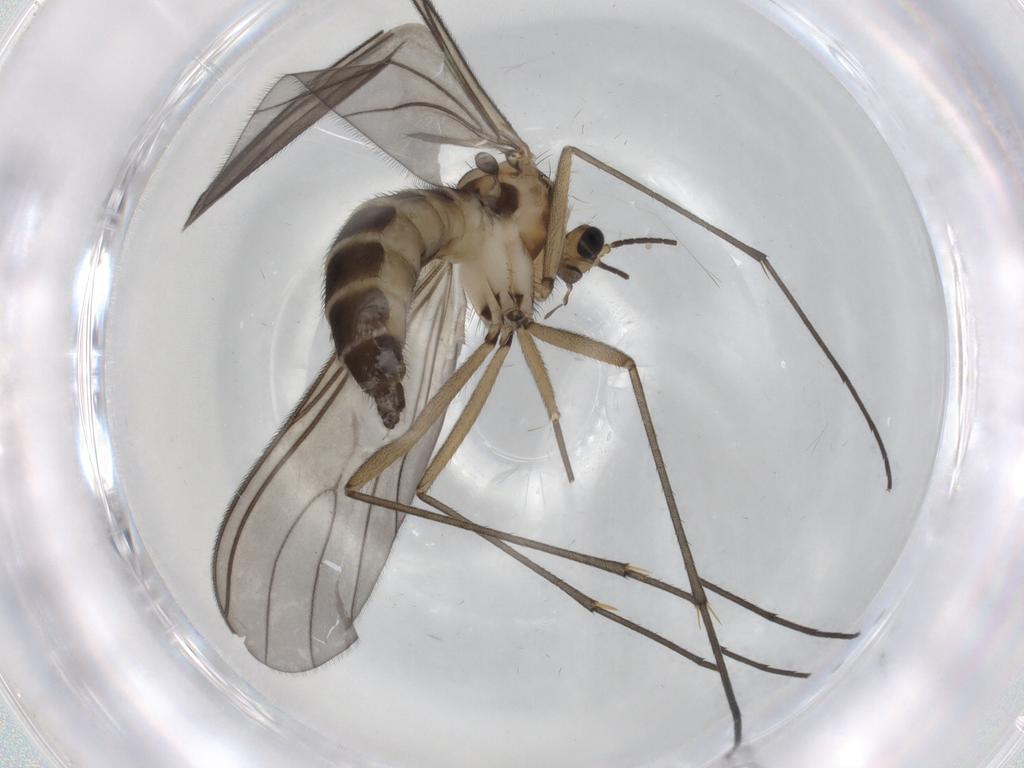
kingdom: Animalia
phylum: Arthropoda
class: Insecta
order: Diptera
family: Sciaridae
